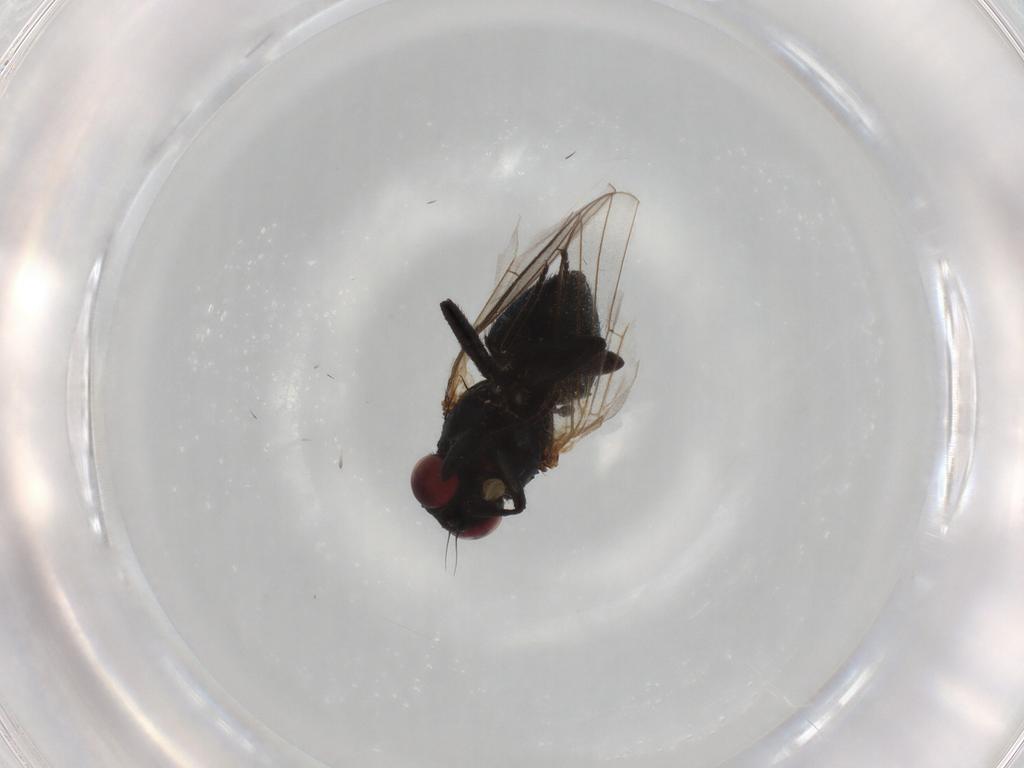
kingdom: Animalia
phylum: Arthropoda
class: Insecta
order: Diptera
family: Agromyzidae
